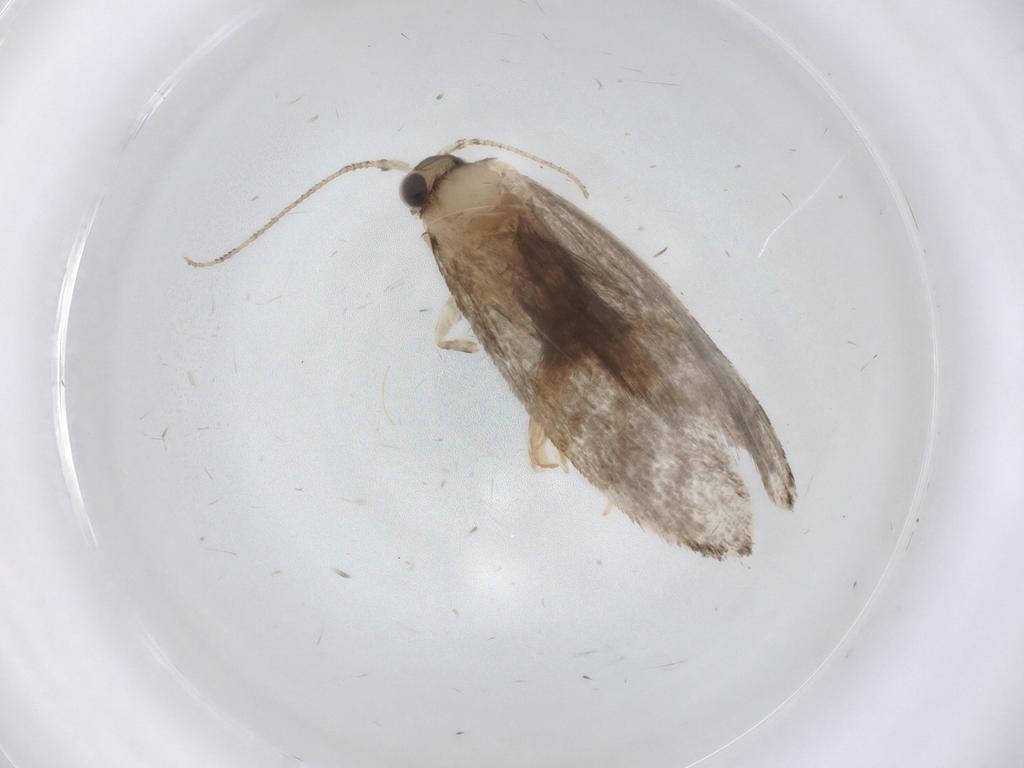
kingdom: Animalia
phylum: Arthropoda
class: Insecta
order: Lepidoptera
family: Tineidae
